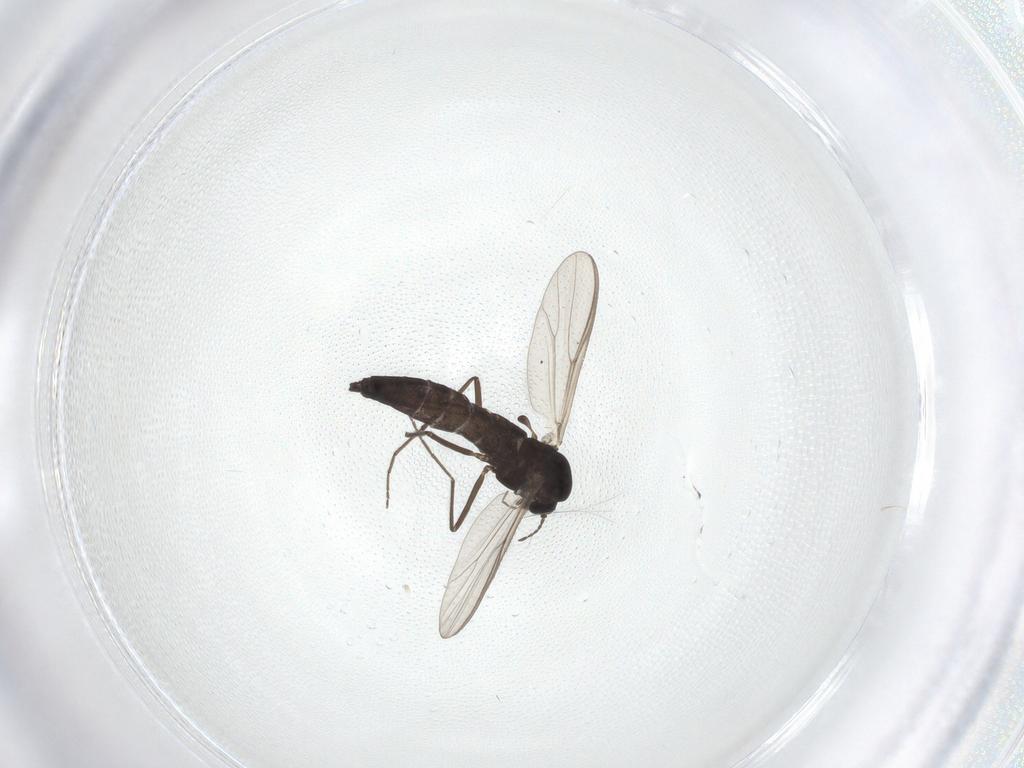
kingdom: Animalia
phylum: Arthropoda
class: Insecta
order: Diptera
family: Chironomidae
